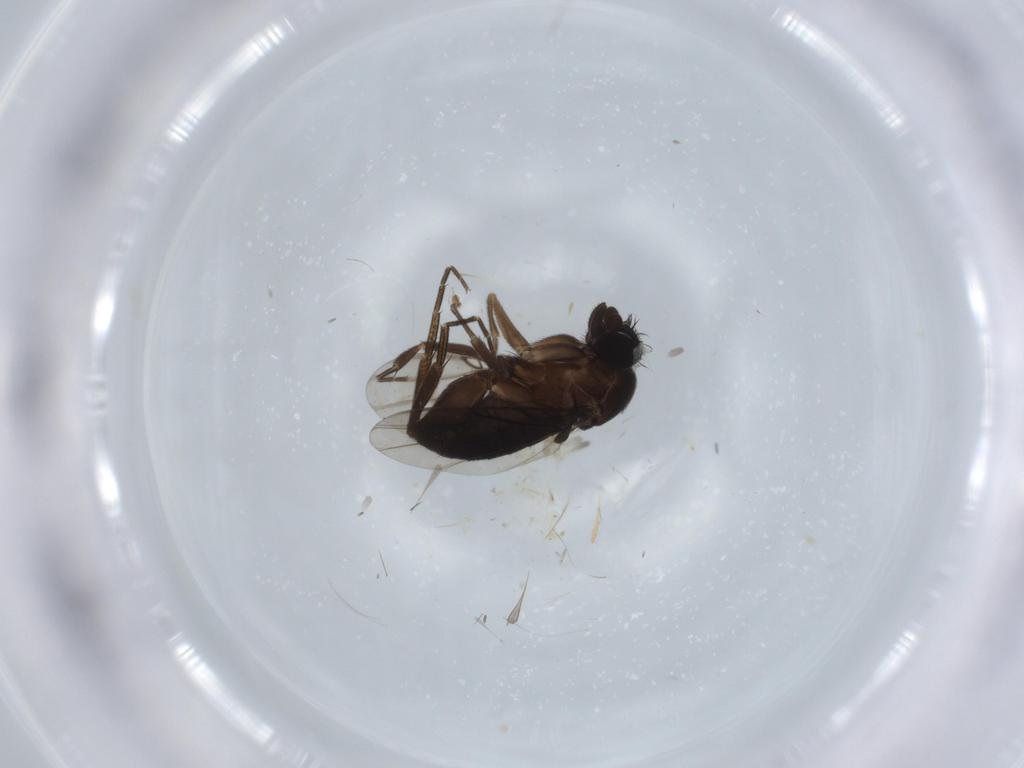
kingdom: Animalia
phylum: Arthropoda
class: Insecta
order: Diptera
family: Phoridae
